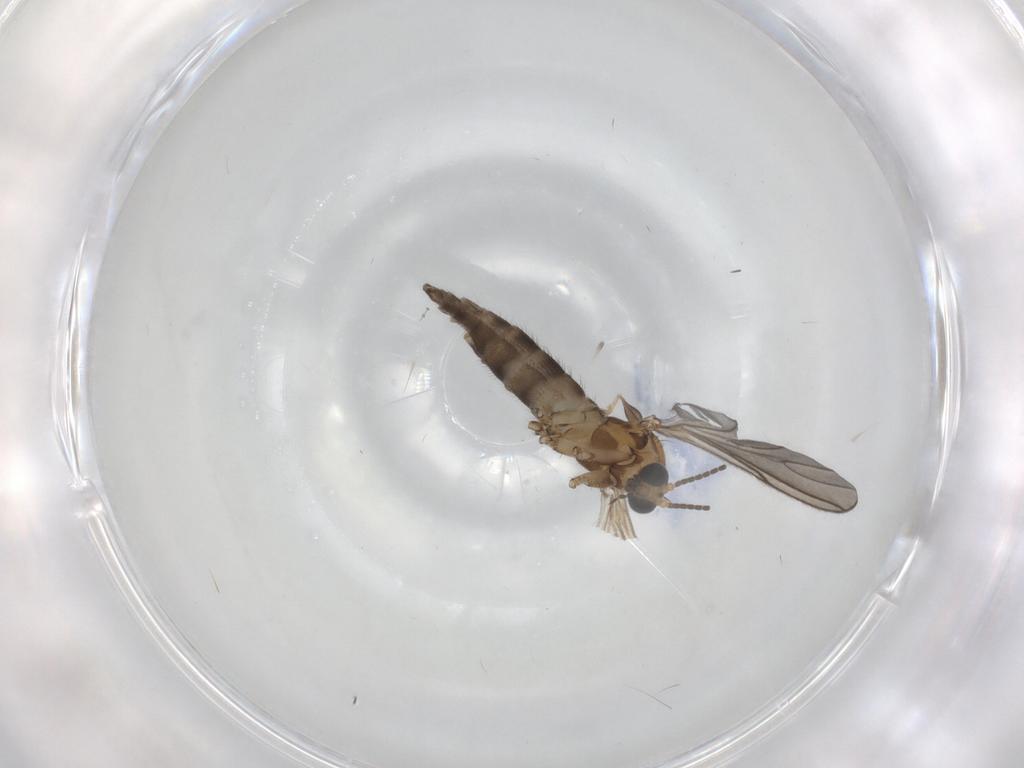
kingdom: Animalia
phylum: Arthropoda
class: Insecta
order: Diptera
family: Sciaridae
